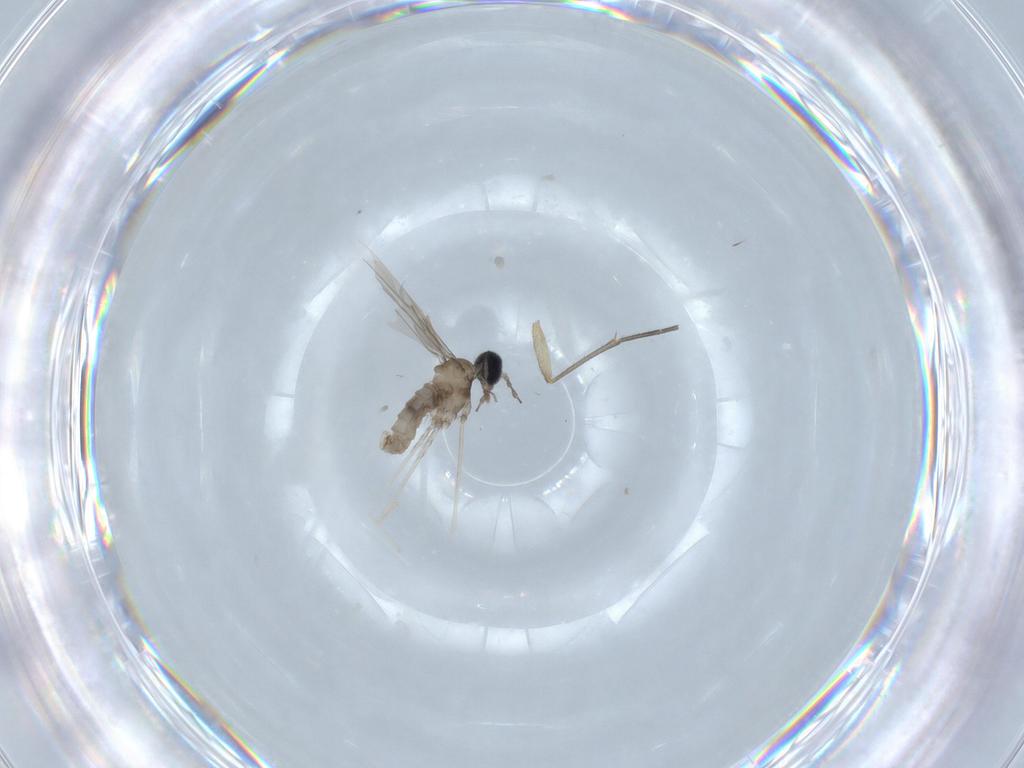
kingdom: Animalia
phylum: Arthropoda
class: Insecta
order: Diptera
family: Cecidomyiidae
